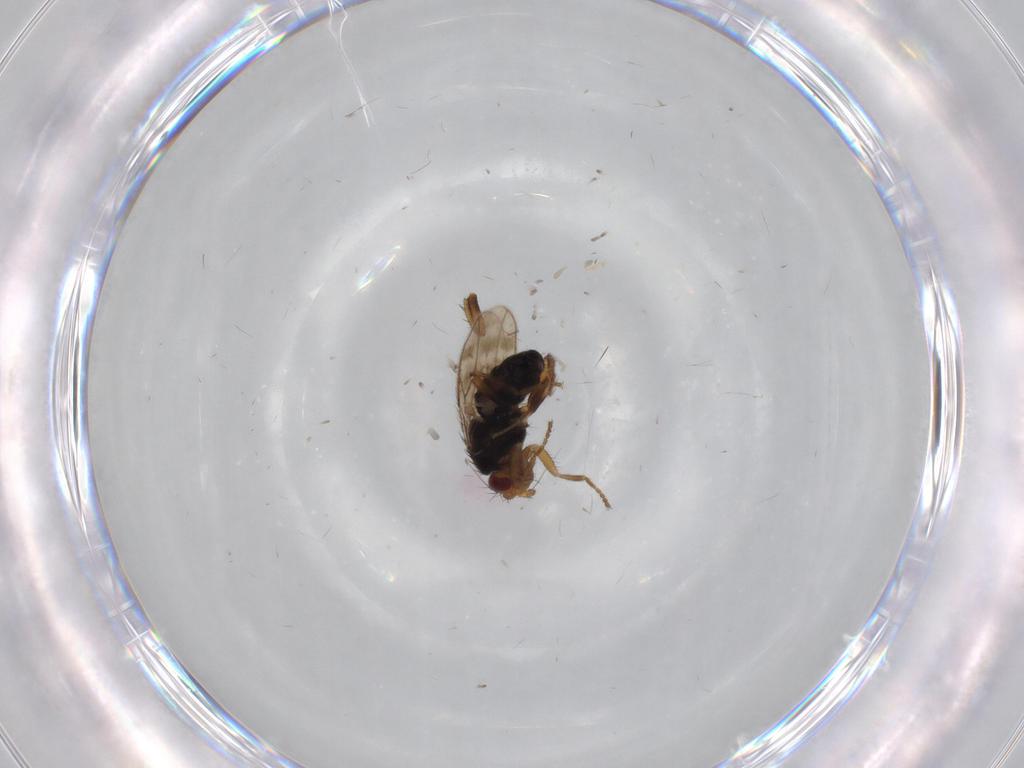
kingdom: Animalia
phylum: Arthropoda
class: Insecta
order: Diptera
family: Sphaeroceridae
